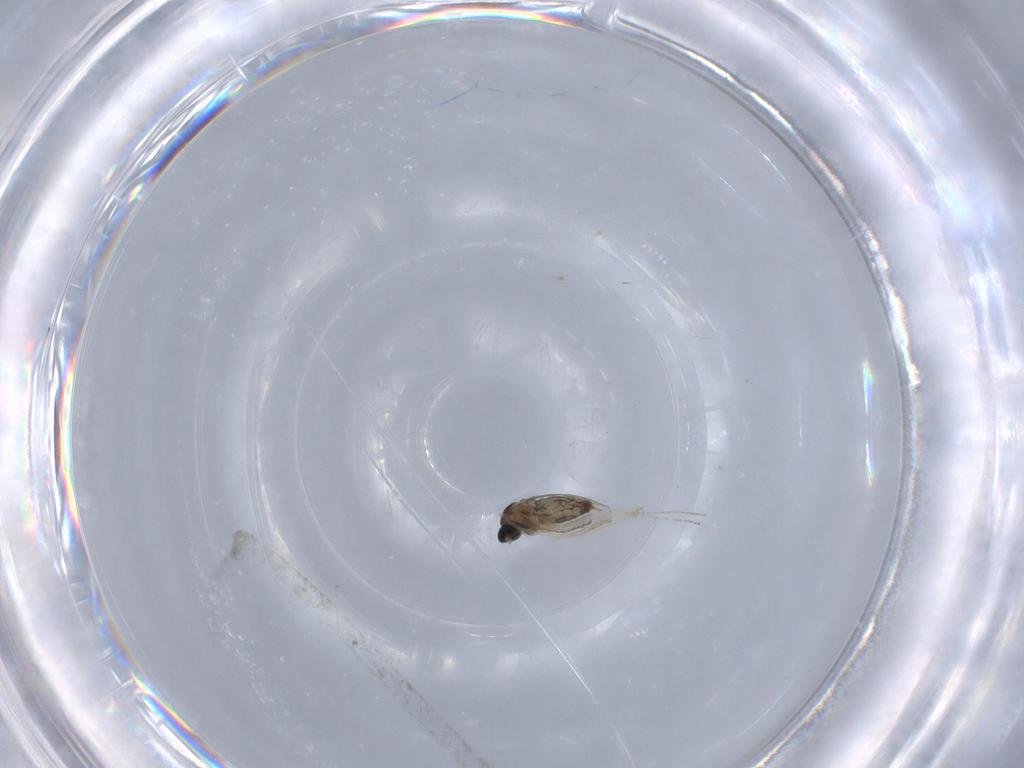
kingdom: Animalia
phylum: Arthropoda
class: Insecta
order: Diptera
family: Cecidomyiidae
